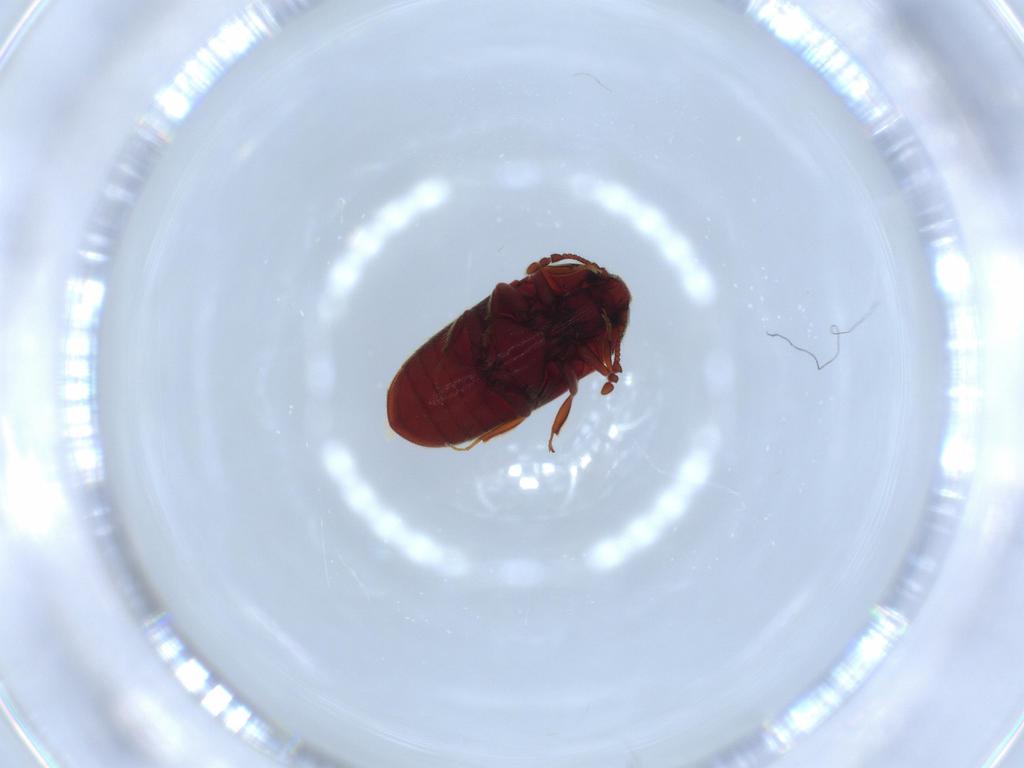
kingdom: Animalia
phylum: Arthropoda
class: Insecta
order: Coleoptera
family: Throscidae
